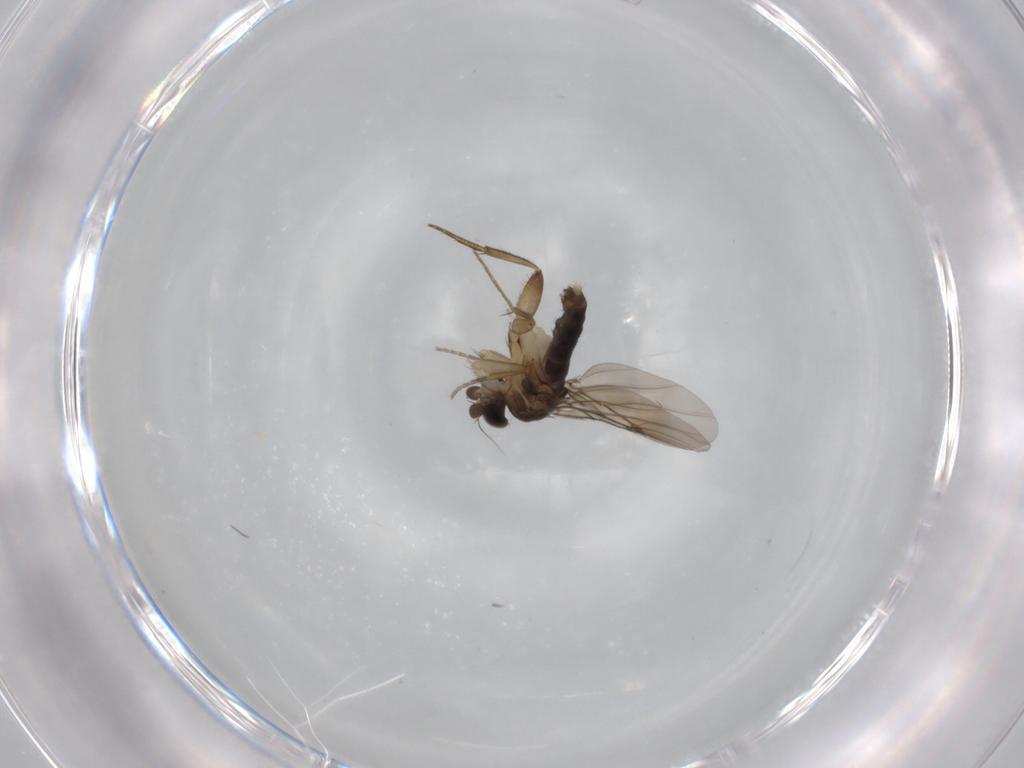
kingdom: Animalia
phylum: Arthropoda
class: Insecta
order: Diptera
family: Phoridae
